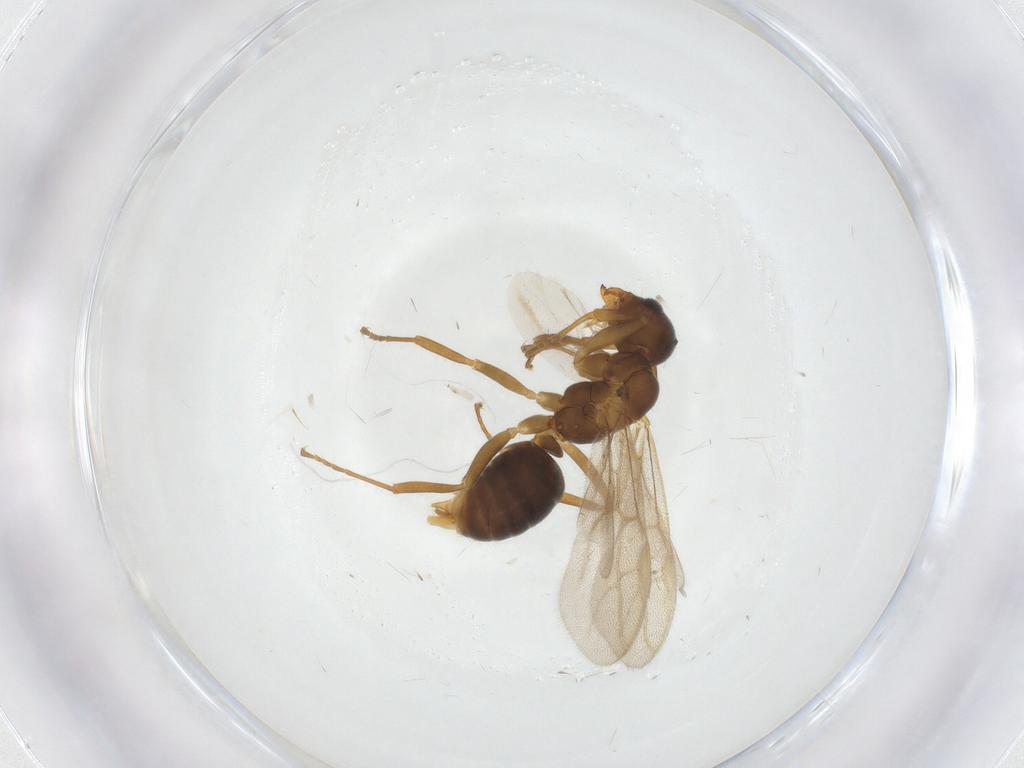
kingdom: Animalia
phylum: Arthropoda
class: Insecta
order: Hymenoptera
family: Formicidae
